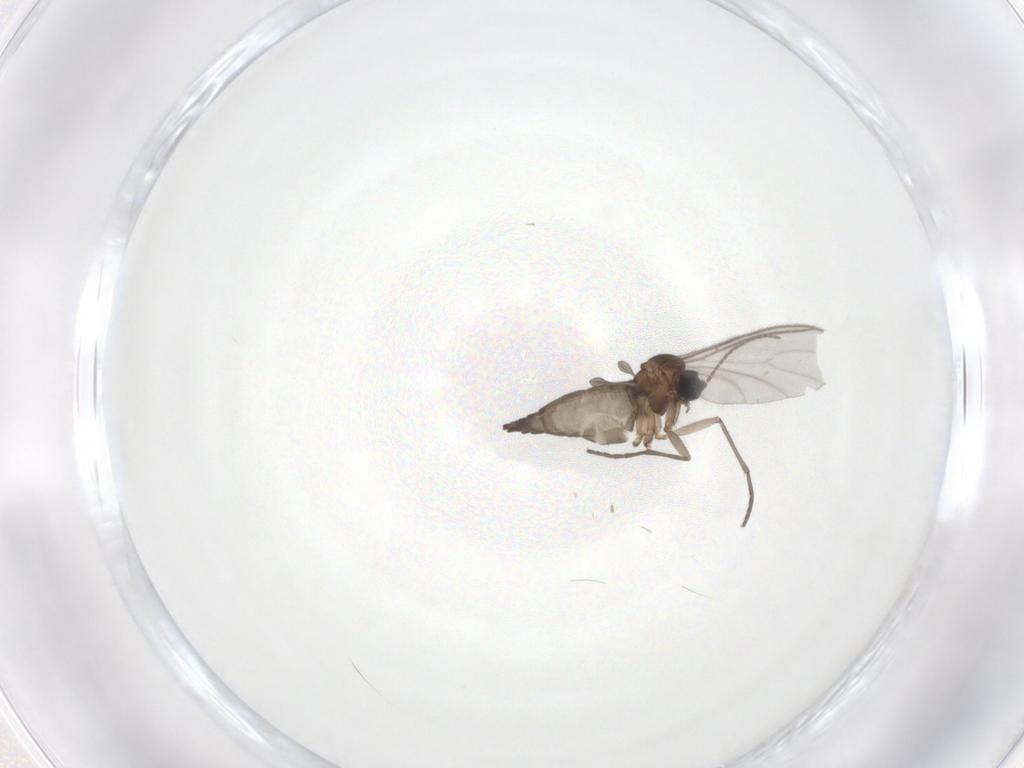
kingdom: Animalia
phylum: Arthropoda
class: Insecta
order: Diptera
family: Sciaridae
